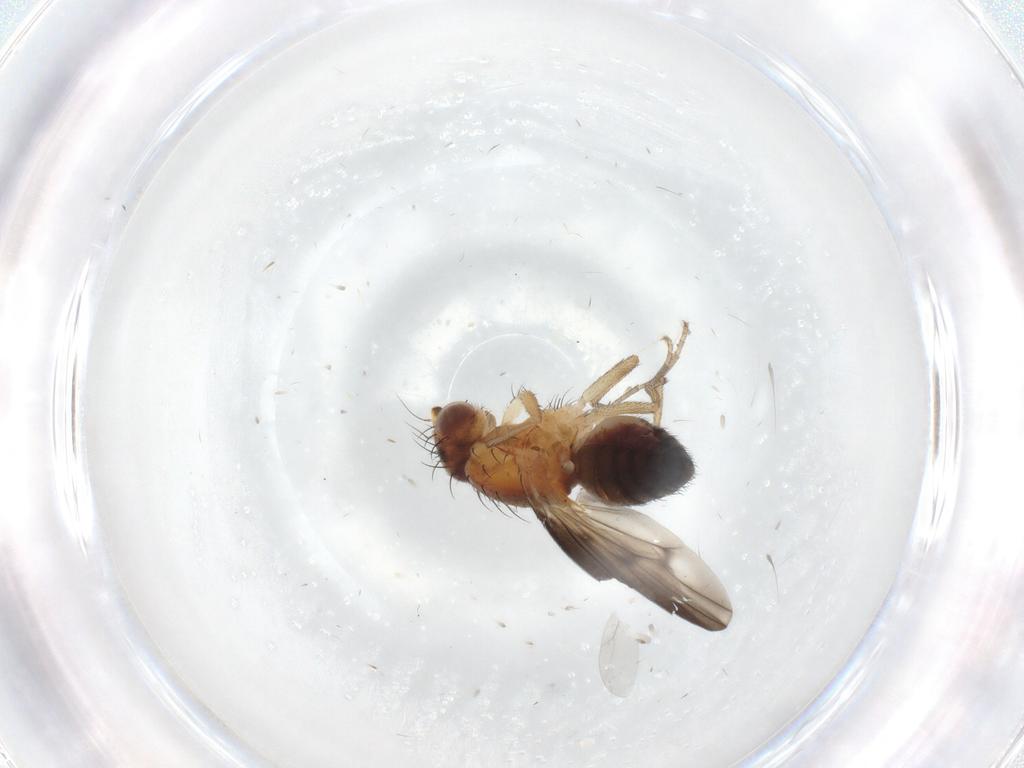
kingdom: Animalia
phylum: Arthropoda
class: Insecta
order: Diptera
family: Heleomyzidae
